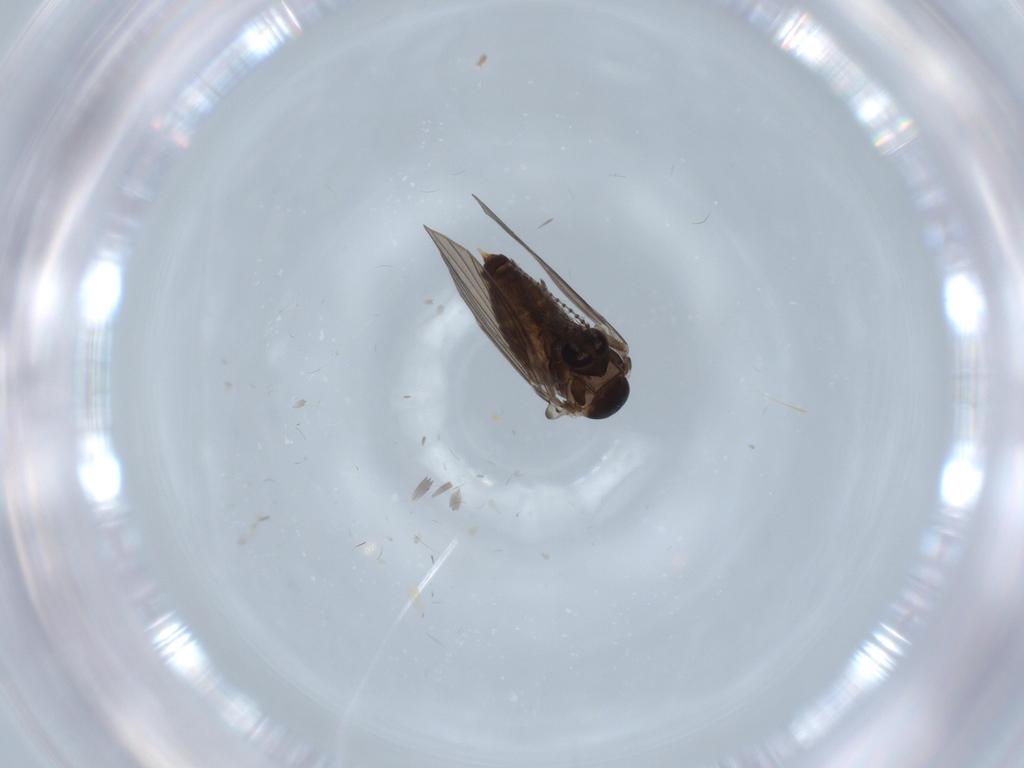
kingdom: Animalia
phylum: Arthropoda
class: Insecta
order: Diptera
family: Psychodidae
